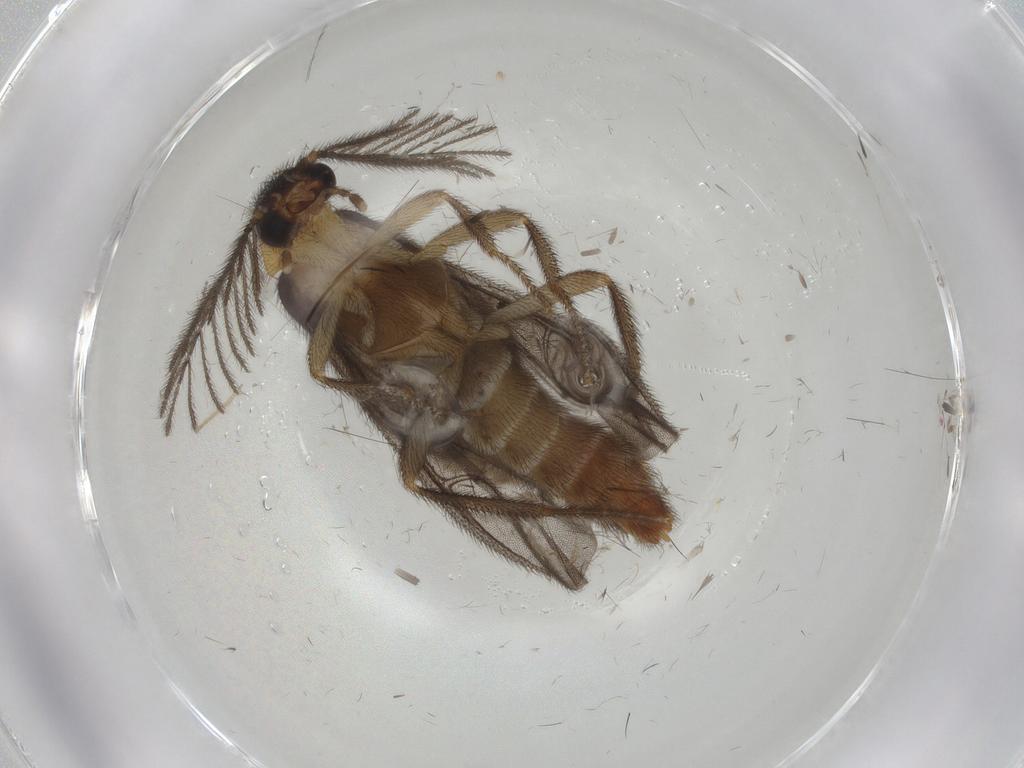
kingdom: Animalia
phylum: Arthropoda
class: Insecta
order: Coleoptera
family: Phengodidae
